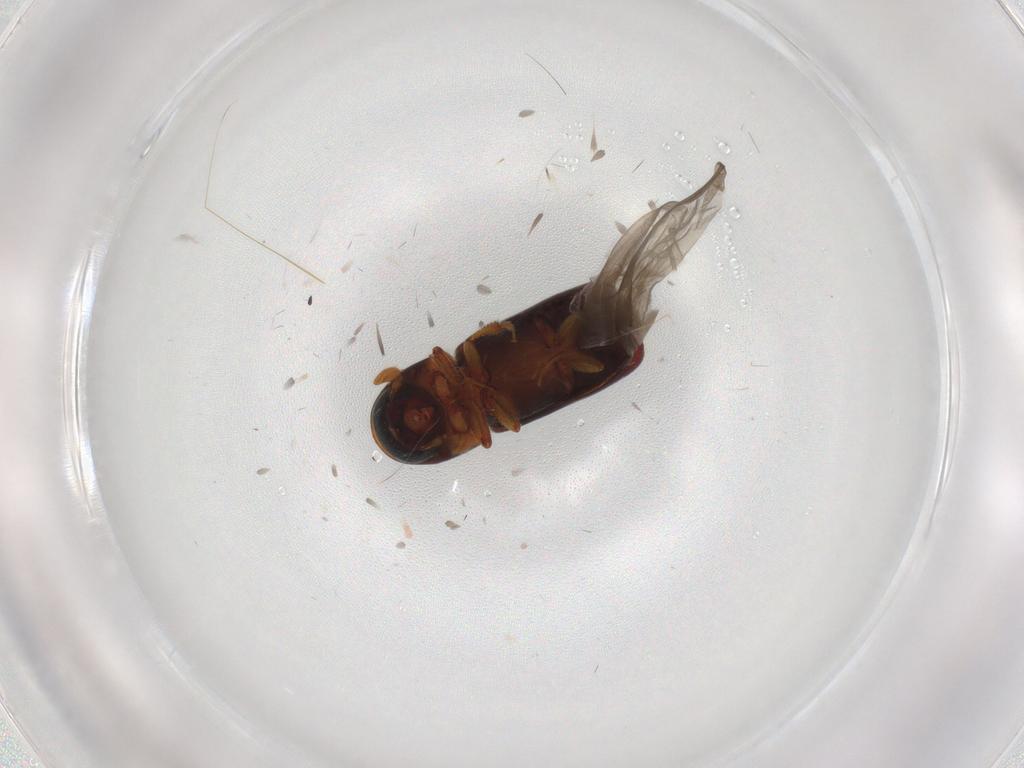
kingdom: Animalia
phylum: Arthropoda
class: Insecta
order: Coleoptera
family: Curculionidae
